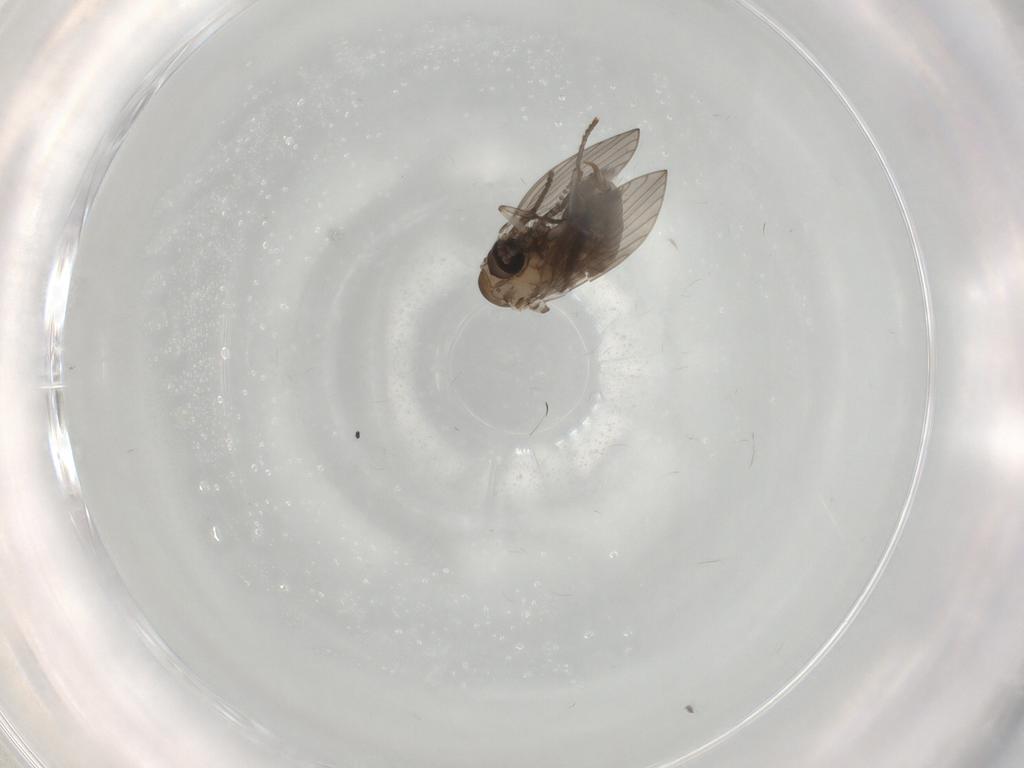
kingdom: Animalia
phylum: Arthropoda
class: Insecta
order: Diptera
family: Psychodidae
